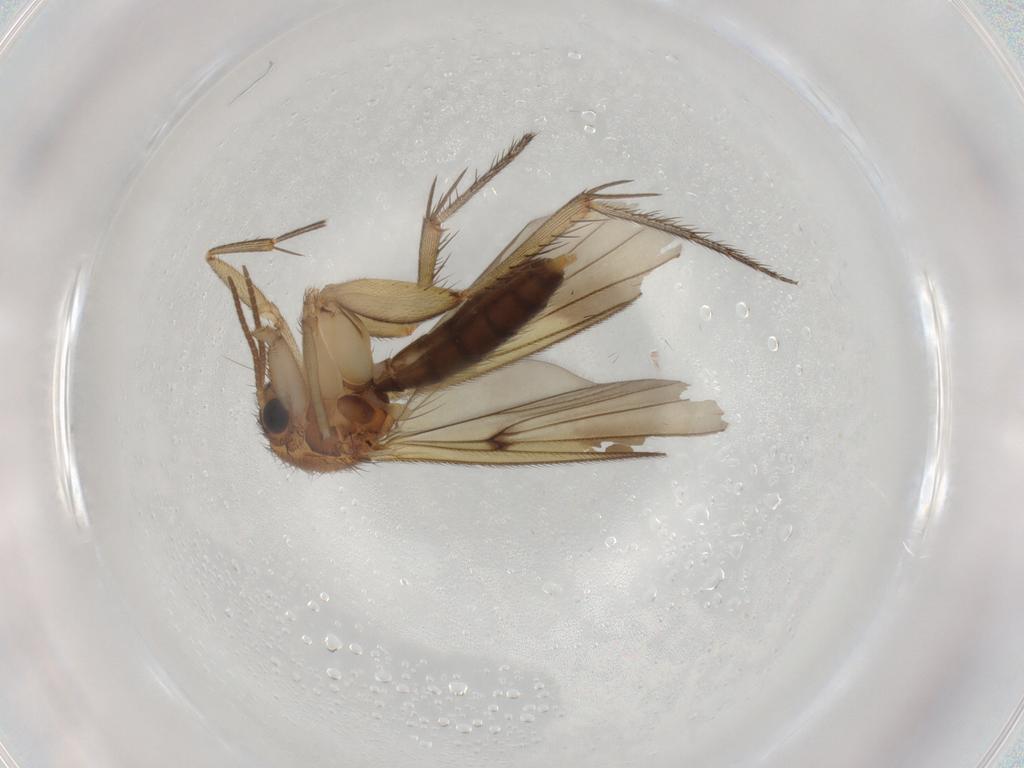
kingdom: Animalia
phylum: Arthropoda
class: Insecta
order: Diptera
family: Mycetophilidae
